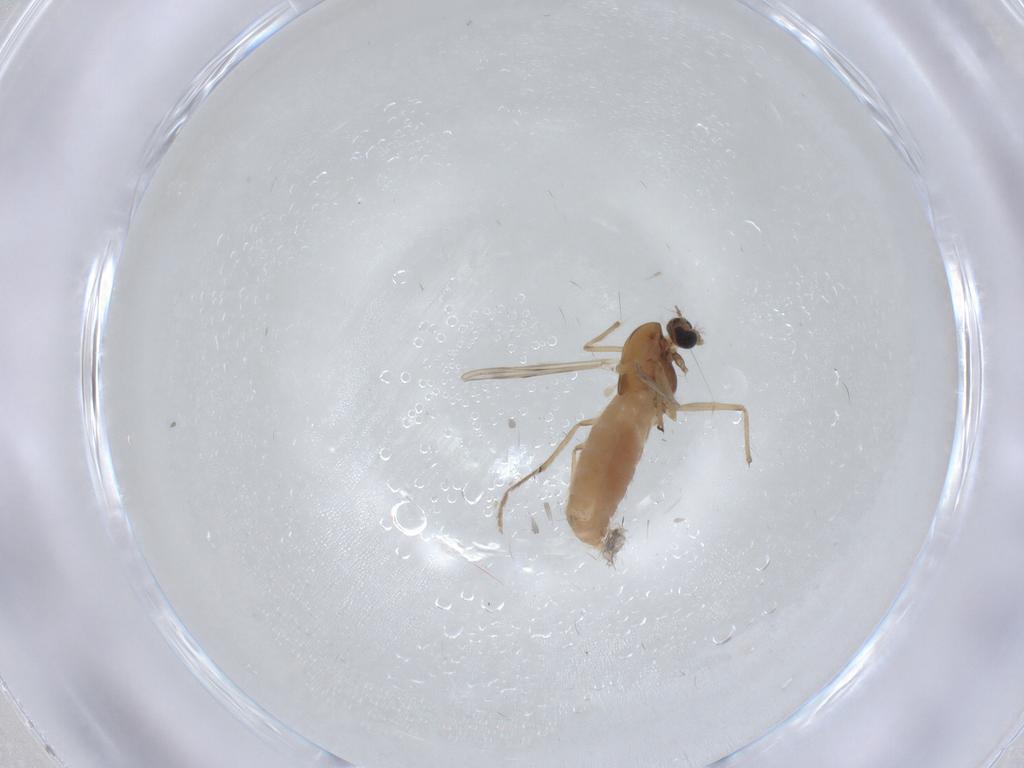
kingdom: Animalia
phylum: Arthropoda
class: Insecta
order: Diptera
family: Chironomidae
